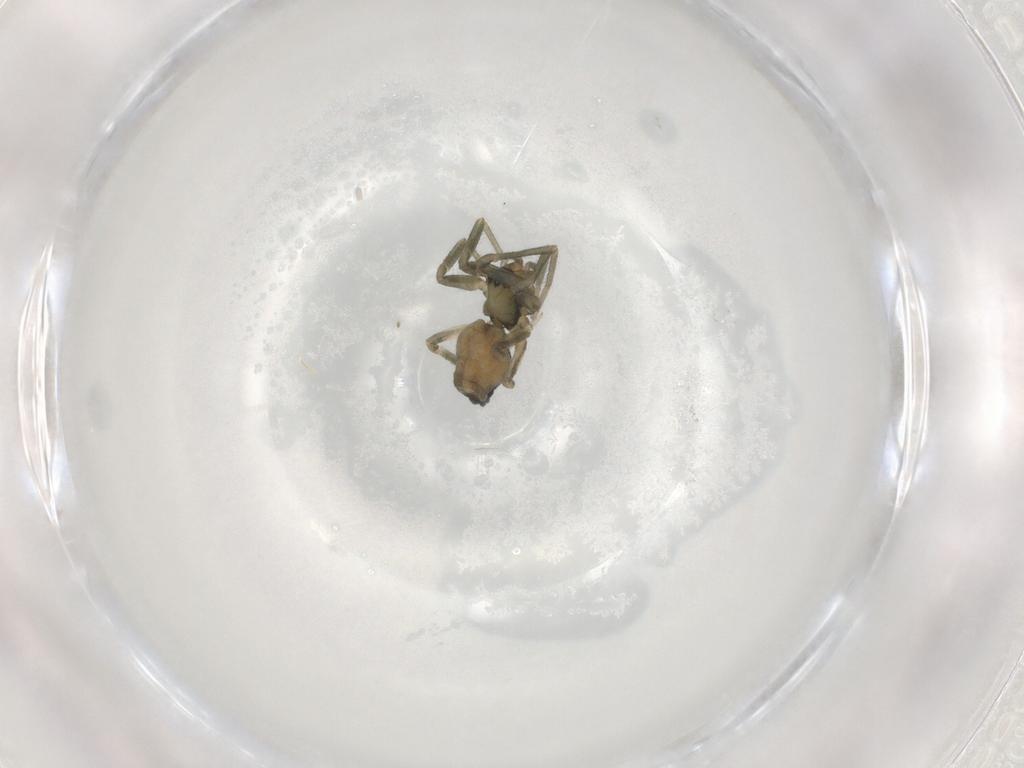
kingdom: Animalia
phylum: Arthropoda
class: Arachnida
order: Araneae
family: Linyphiidae
